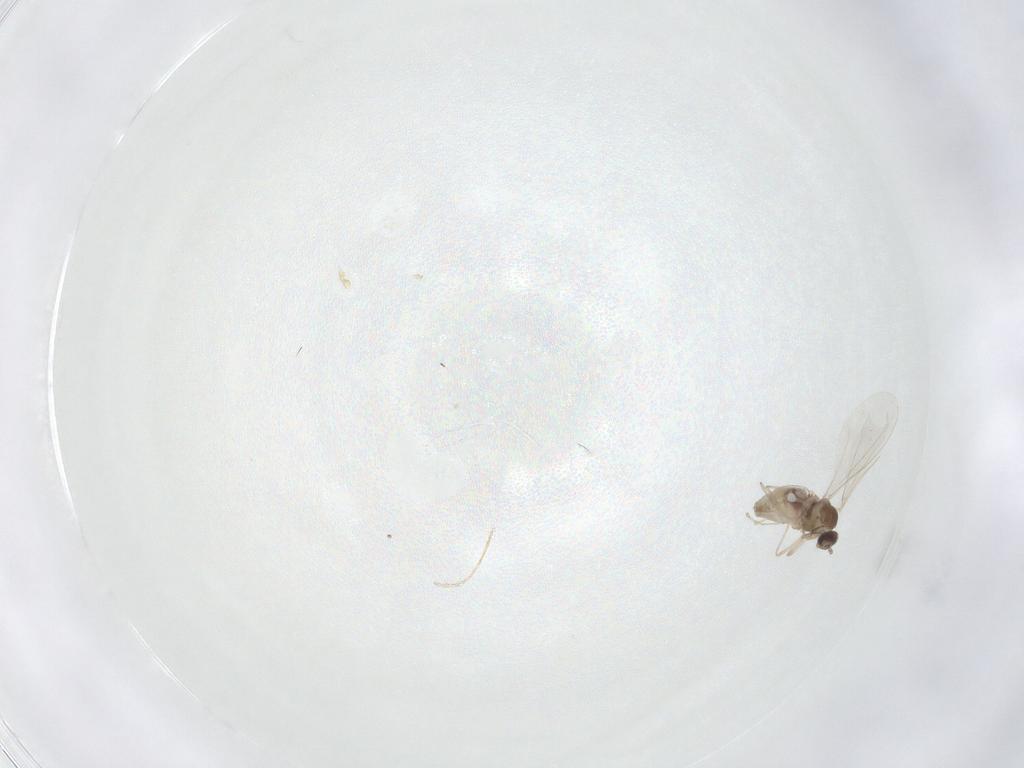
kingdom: Animalia
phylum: Arthropoda
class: Insecta
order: Diptera
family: Cecidomyiidae
